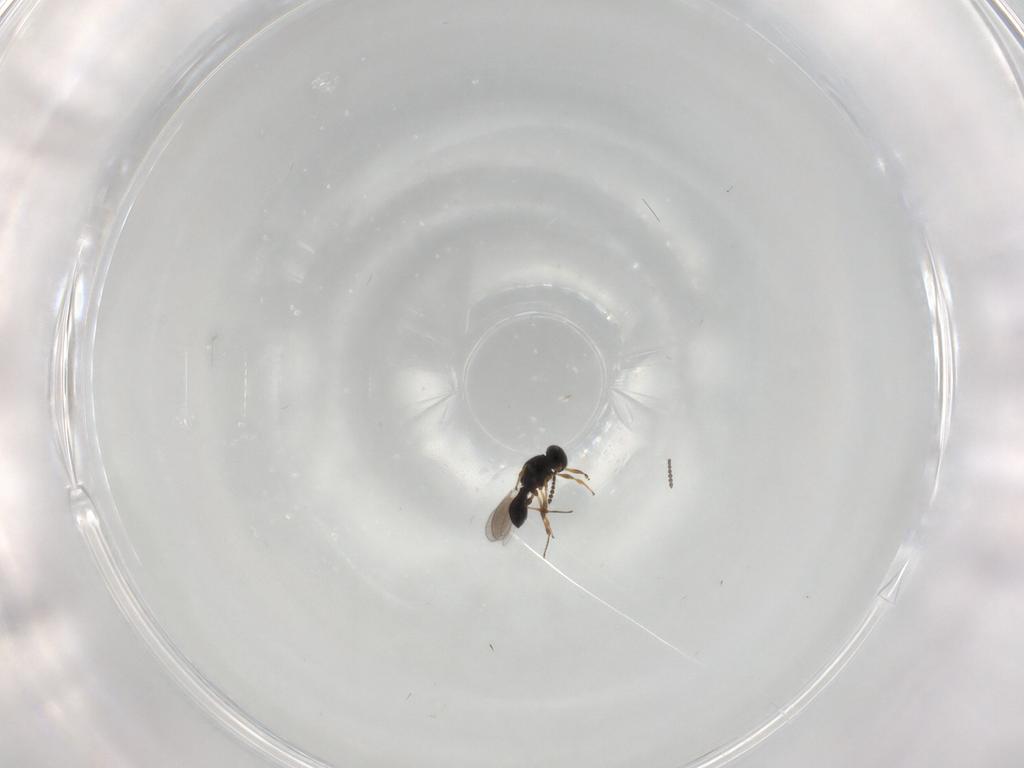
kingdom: Animalia
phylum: Arthropoda
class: Insecta
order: Hymenoptera
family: Platygastridae
